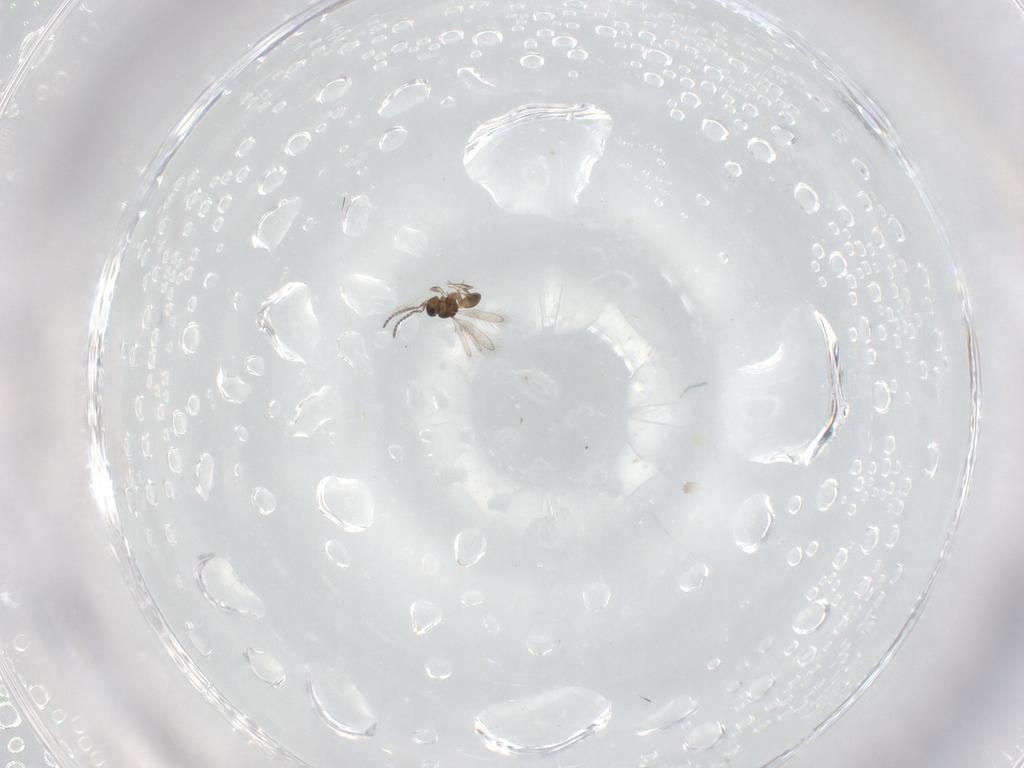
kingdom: Animalia
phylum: Arthropoda
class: Insecta
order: Hymenoptera
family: Scelionidae
